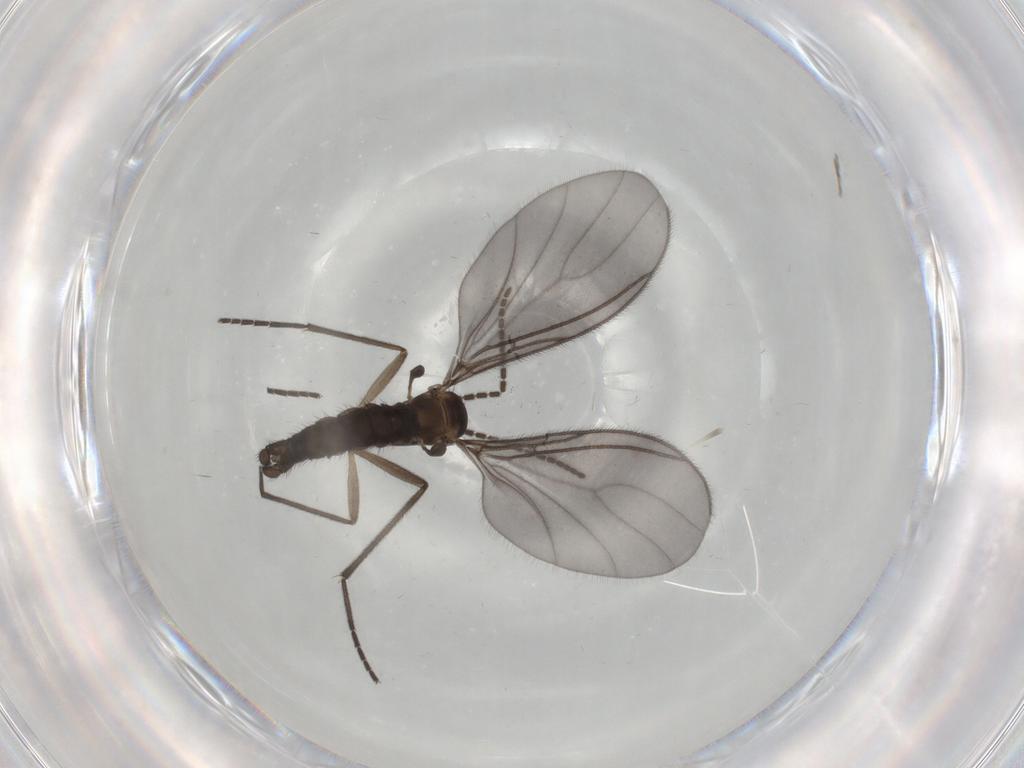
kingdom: Animalia
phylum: Arthropoda
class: Insecta
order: Diptera
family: Sciaridae
